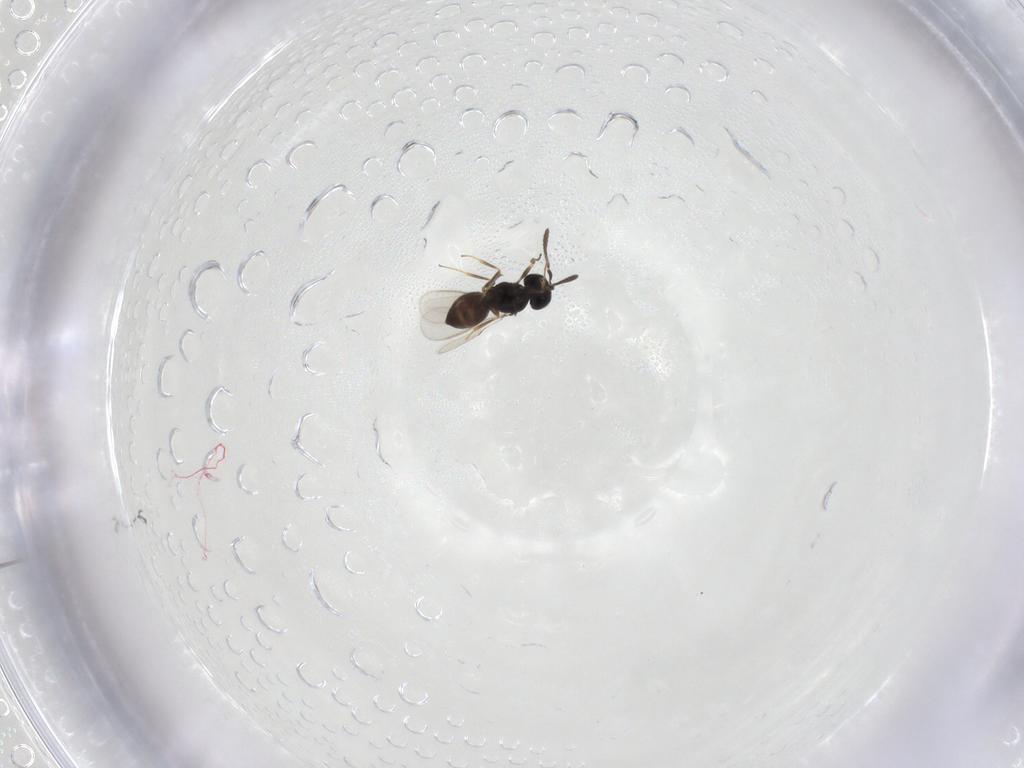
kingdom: Animalia
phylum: Arthropoda
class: Insecta
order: Hymenoptera
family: Scelionidae
